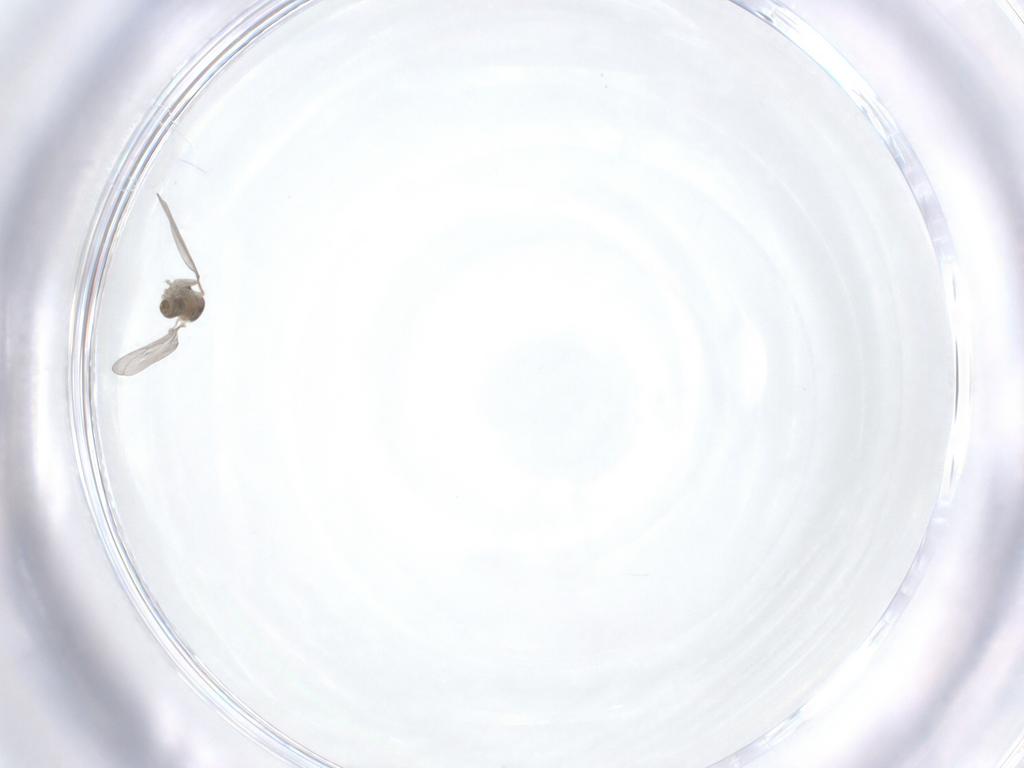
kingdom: Animalia
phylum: Arthropoda
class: Insecta
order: Diptera
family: Cecidomyiidae
